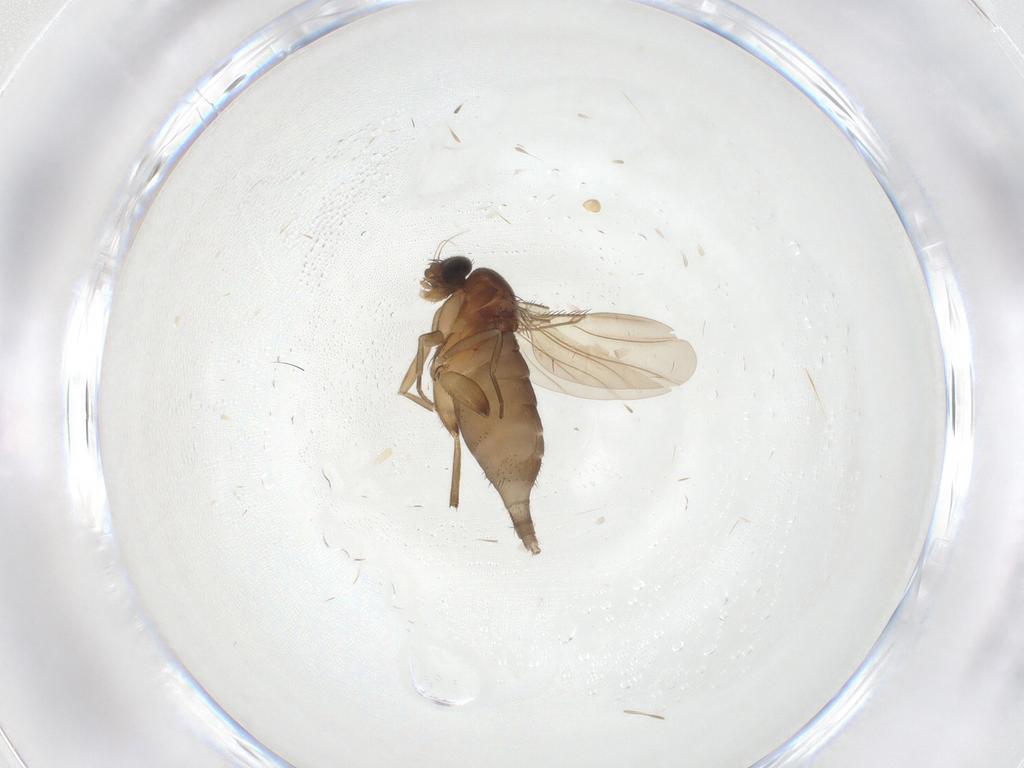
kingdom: Animalia
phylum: Arthropoda
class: Insecta
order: Diptera
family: Phoridae
